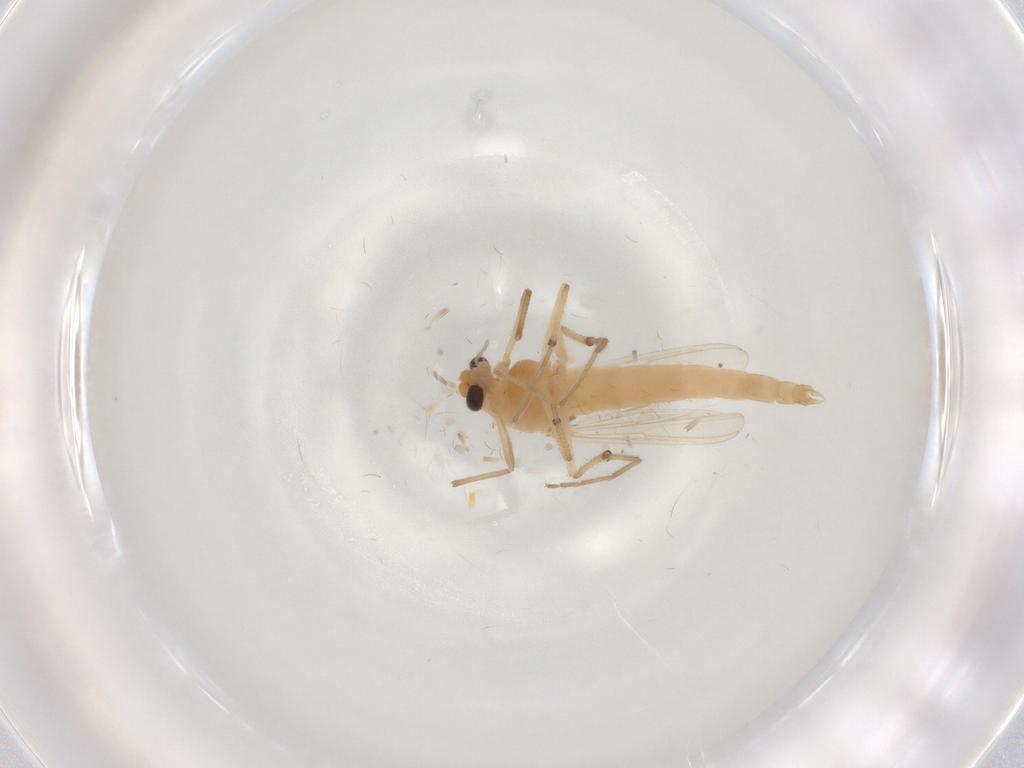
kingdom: Animalia
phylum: Arthropoda
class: Insecta
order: Diptera
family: Chironomidae
